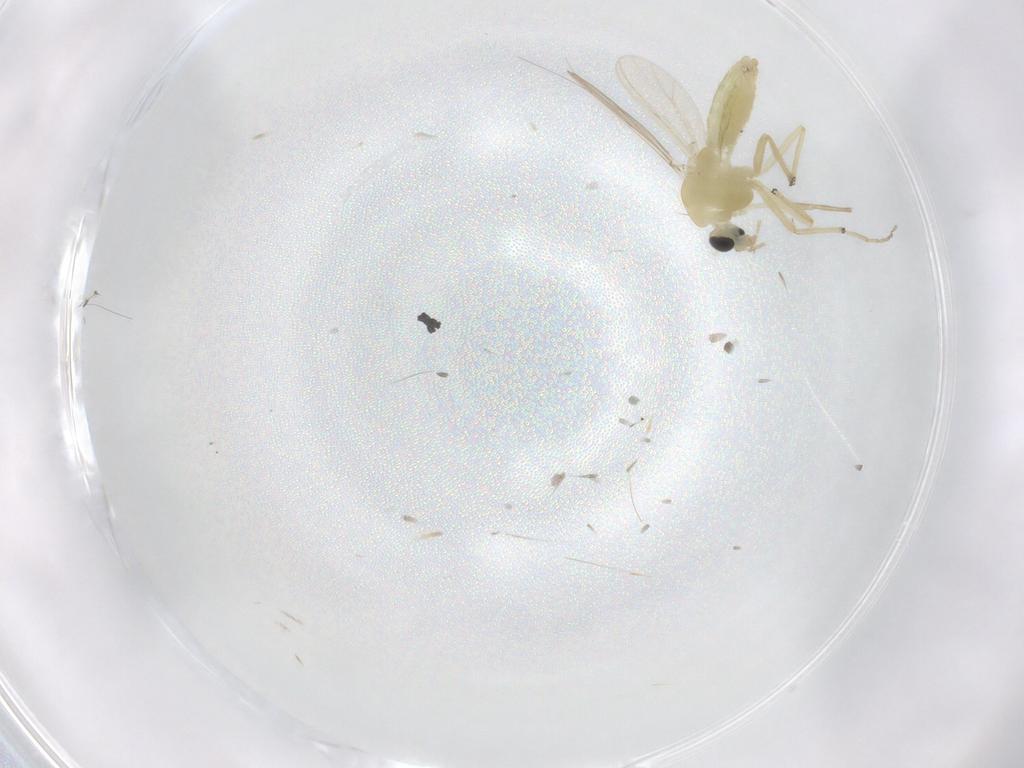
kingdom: Animalia
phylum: Arthropoda
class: Insecta
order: Diptera
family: Chironomidae
